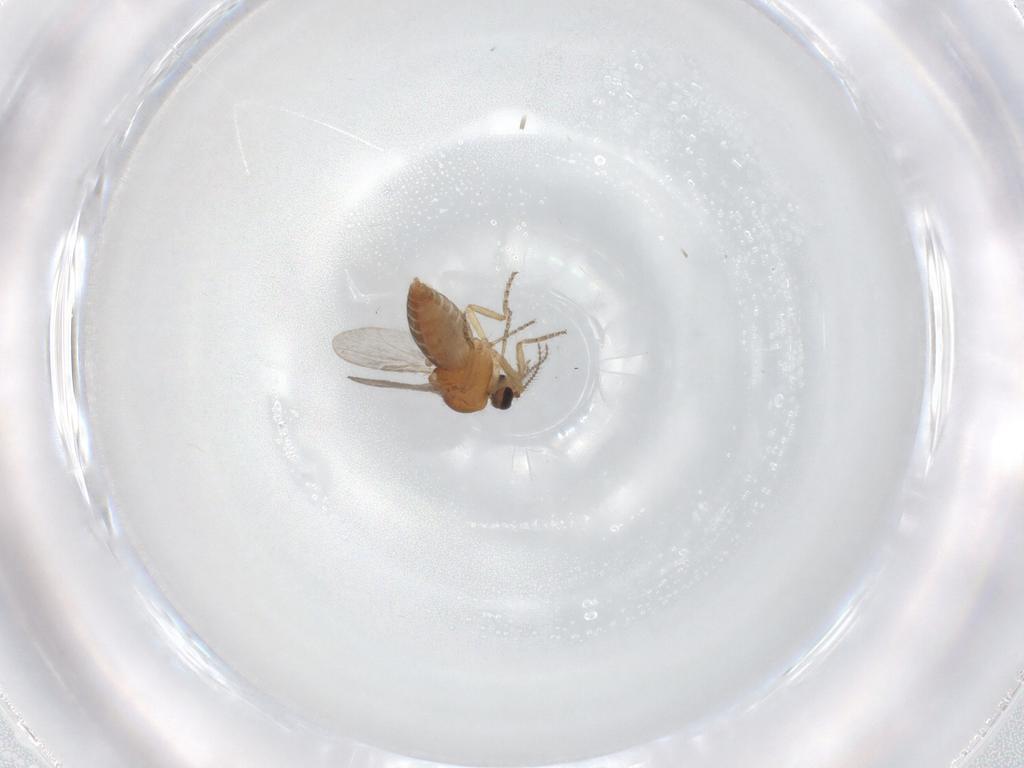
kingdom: Animalia
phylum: Arthropoda
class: Insecta
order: Diptera
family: Ceratopogonidae
